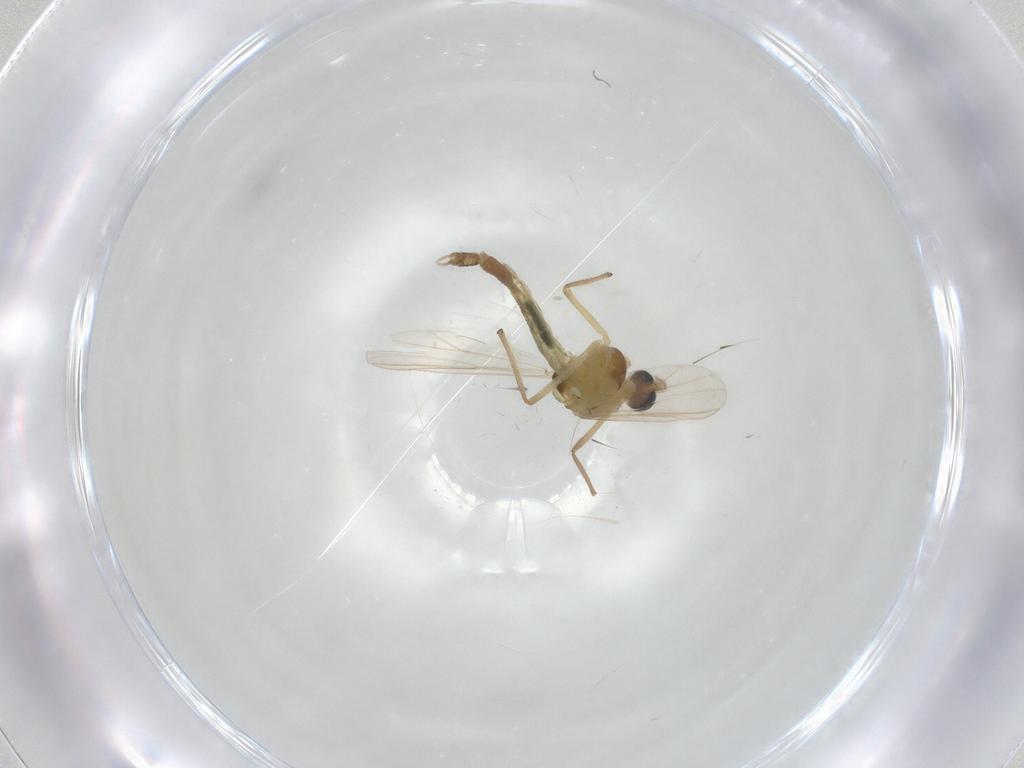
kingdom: Animalia
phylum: Arthropoda
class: Insecta
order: Diptera
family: Chironomidae
